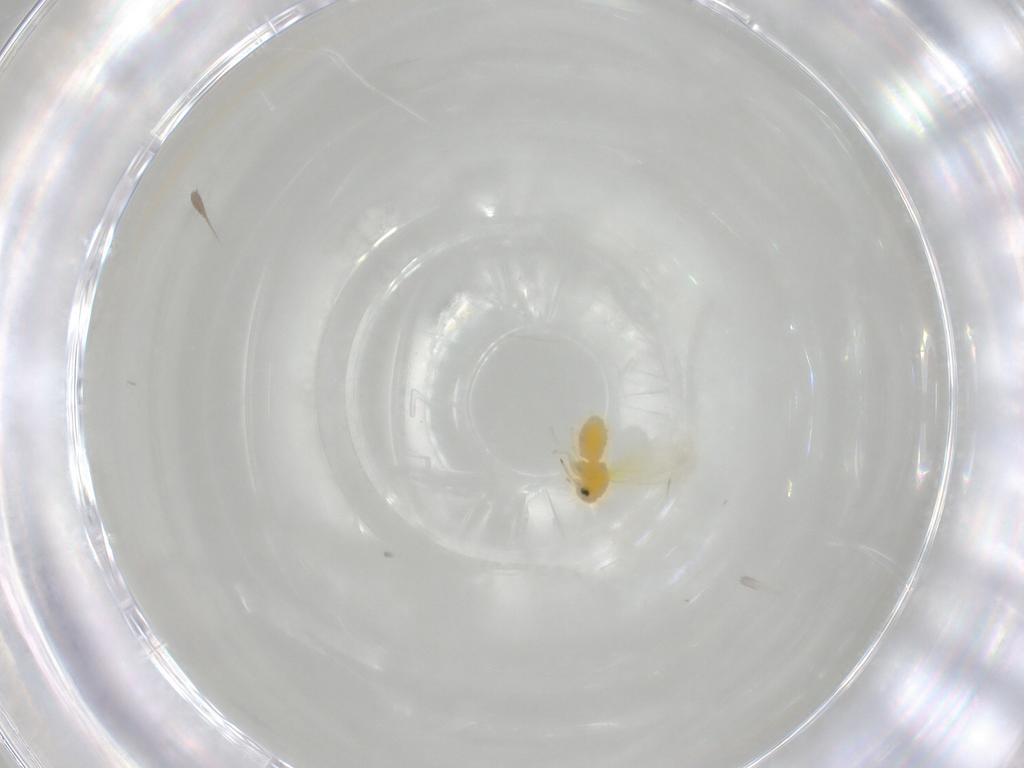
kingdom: Animalia
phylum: Arthropoda
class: Insecta
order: Hemiptera
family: Aleyrodidae
